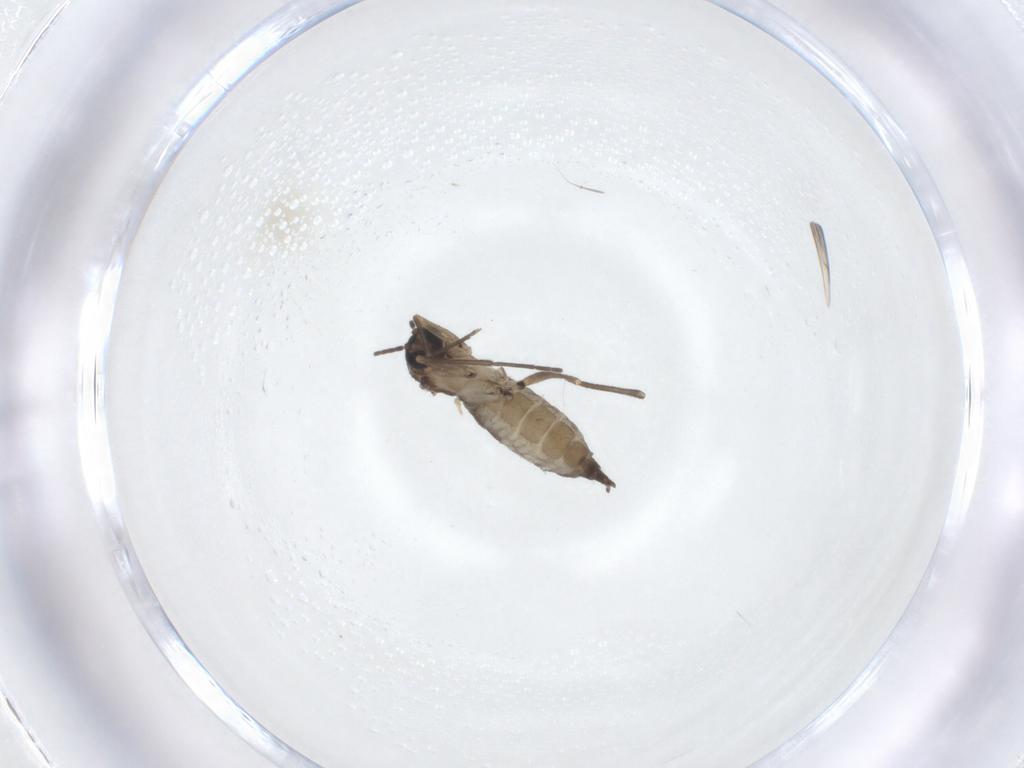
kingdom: Animalia
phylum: Arthropoda
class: Insecta
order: Diptera
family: Sciaridae
